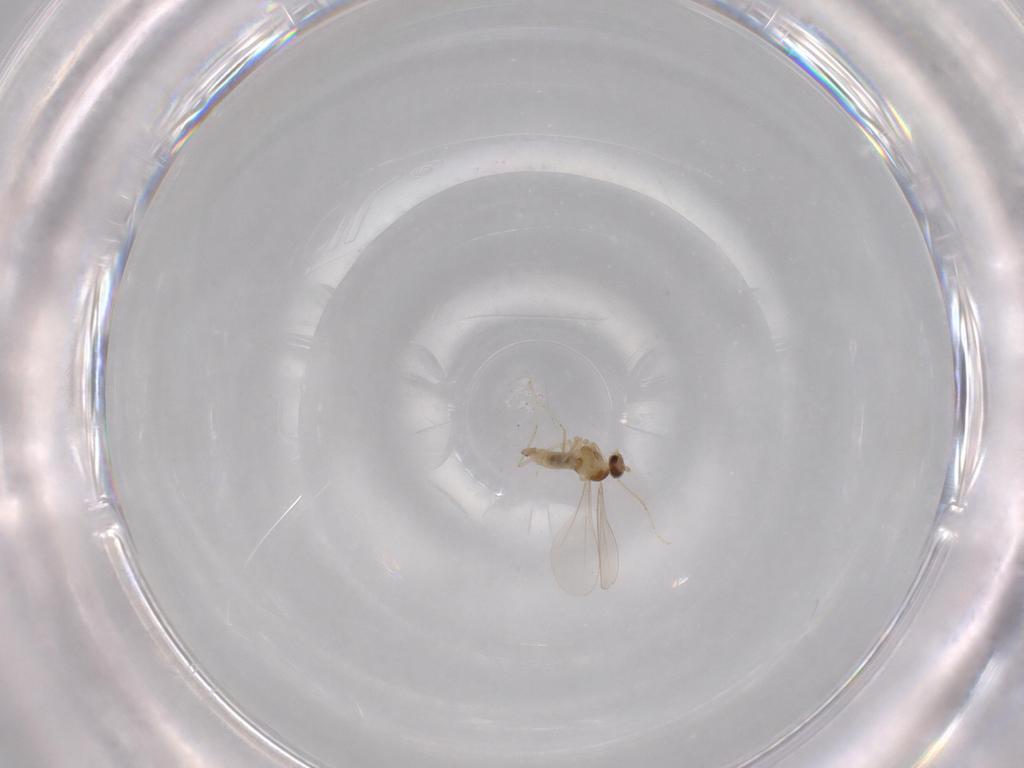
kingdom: Animalia
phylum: Arthropoda
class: Insecta
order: Diptera
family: Cecidomyiidae
